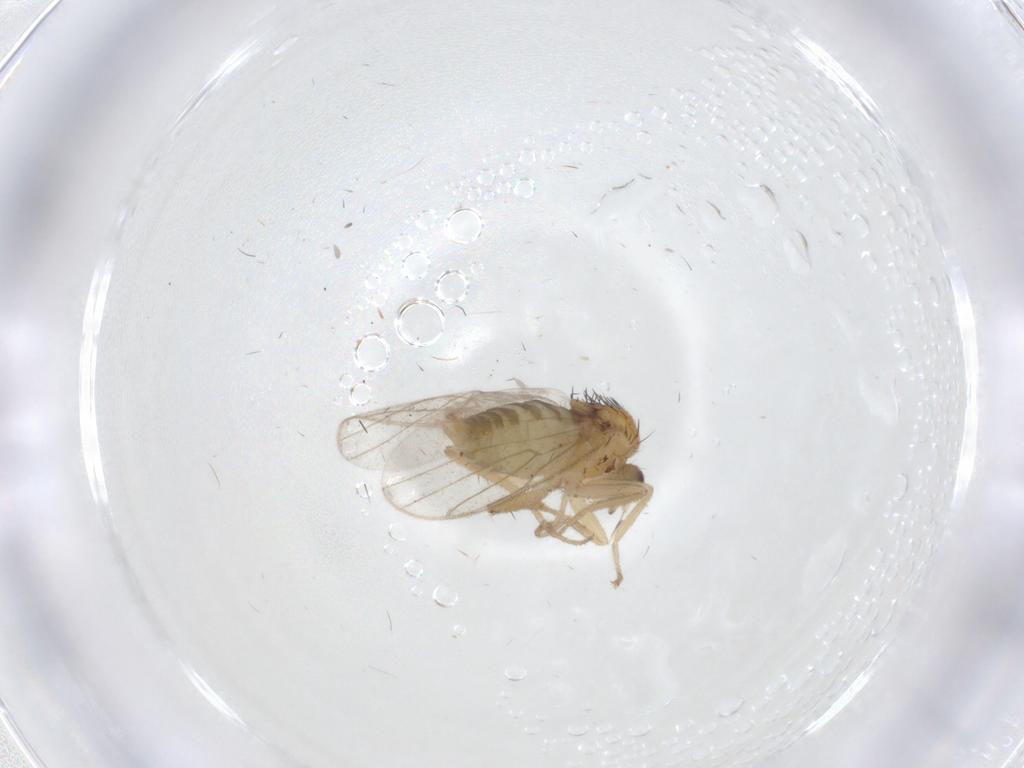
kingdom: Animalia
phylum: Arthropoda
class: Insecta
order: Diptera
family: Hybotidae
